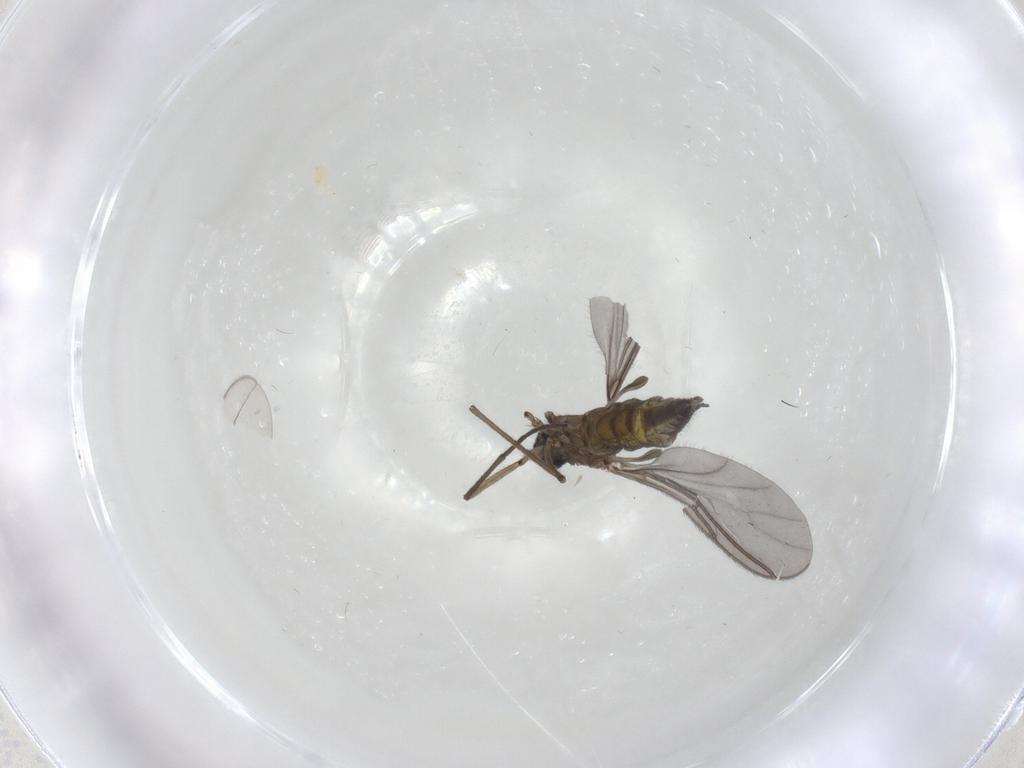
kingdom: Animalia
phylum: Arthropoda
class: Insecta
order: Diptera
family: Sciaridae
